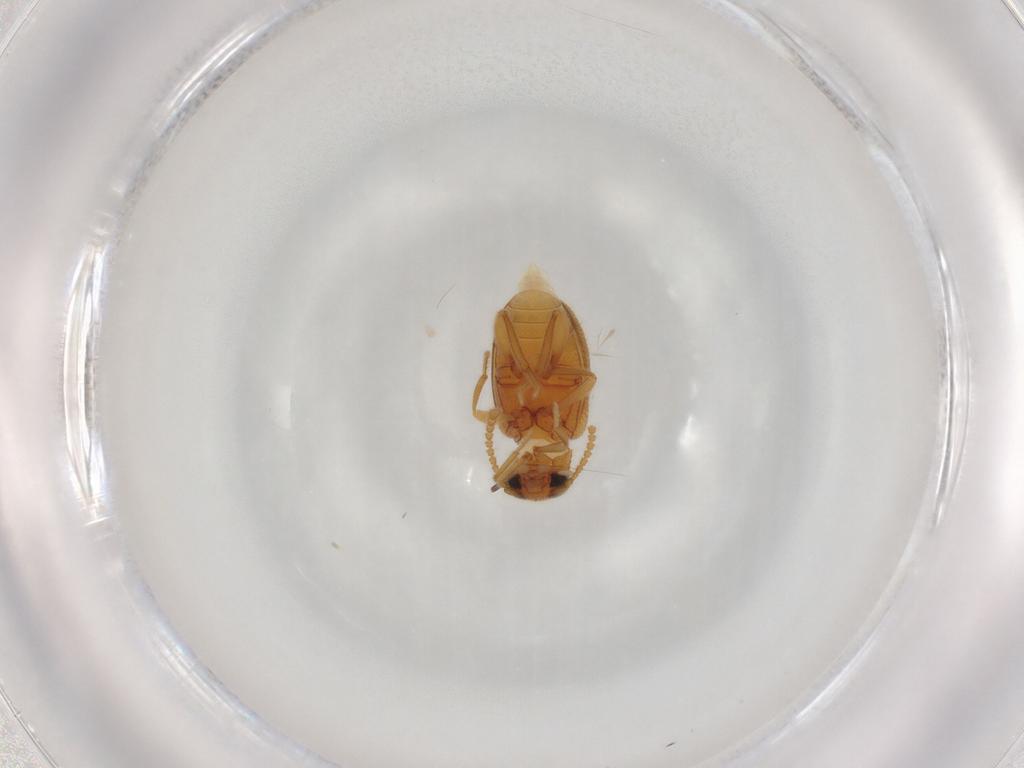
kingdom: Animalia
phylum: Arthropoda
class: Insecta
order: Coleoptera
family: Aderidae
